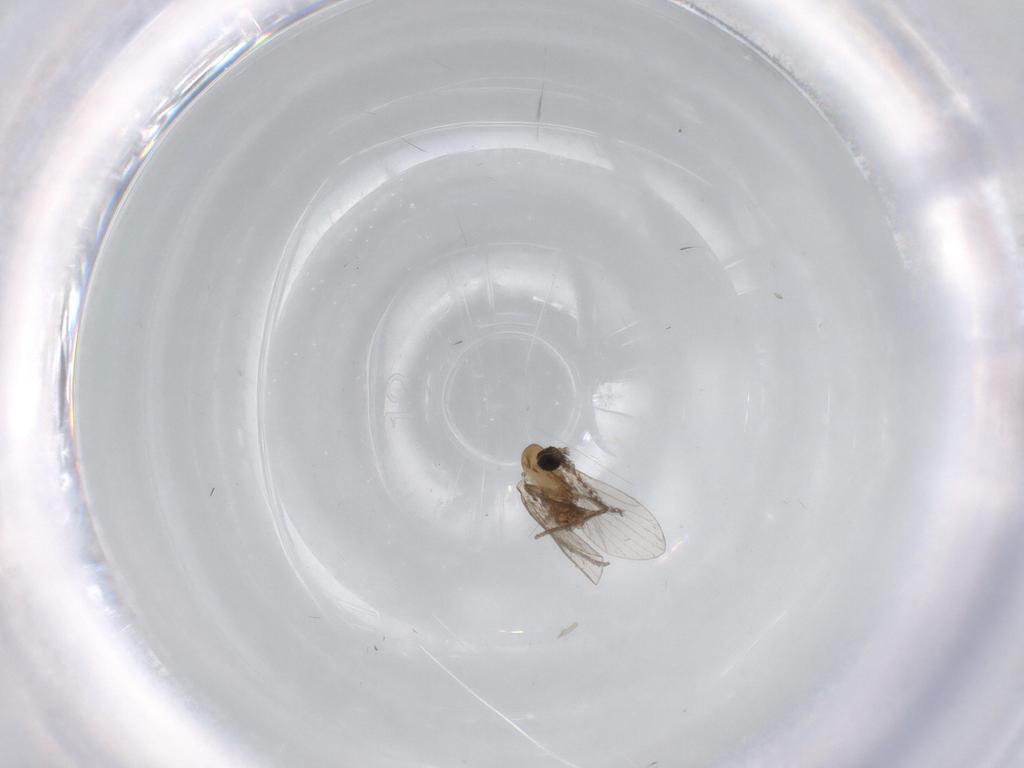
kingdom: Animalia
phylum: Arthropoda
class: Insecta
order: Diptera
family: Psychodidae
